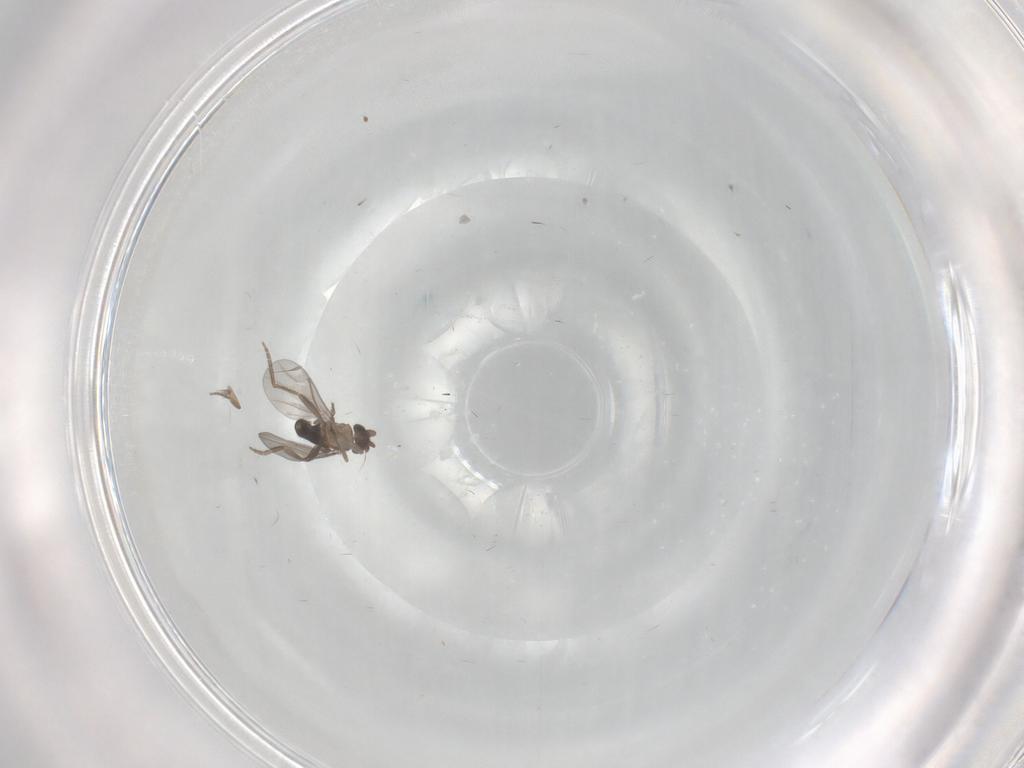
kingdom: Animalia
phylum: Arthropoda
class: Insecta
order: Diptera
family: Psychodidae
